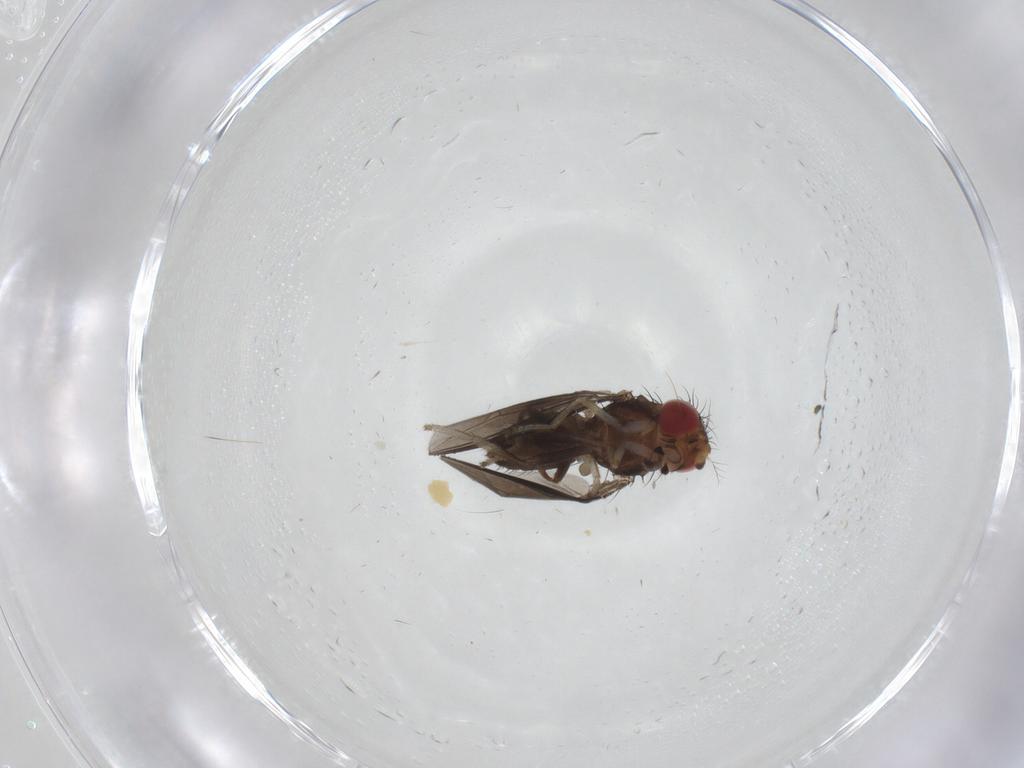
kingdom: Animalia
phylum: Arthropoda
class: Insecta
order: Diptera
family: Drosophilidae
